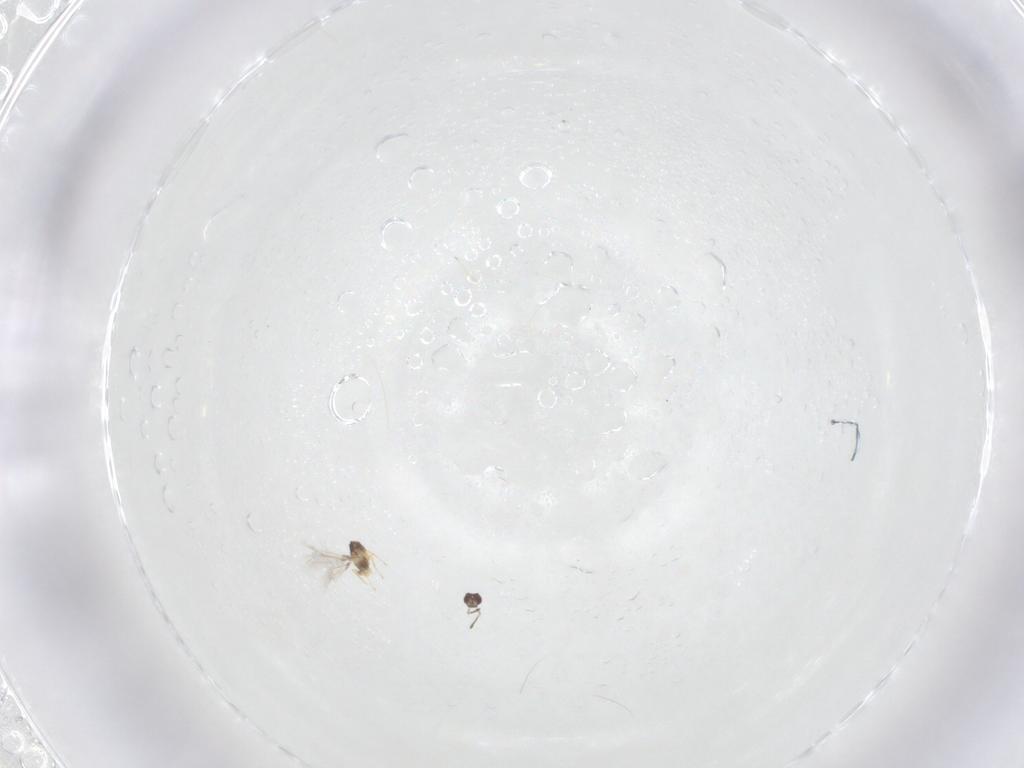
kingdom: Animalia
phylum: Arthropoda
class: Insecta
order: Hymenoptera
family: Mymaridae
